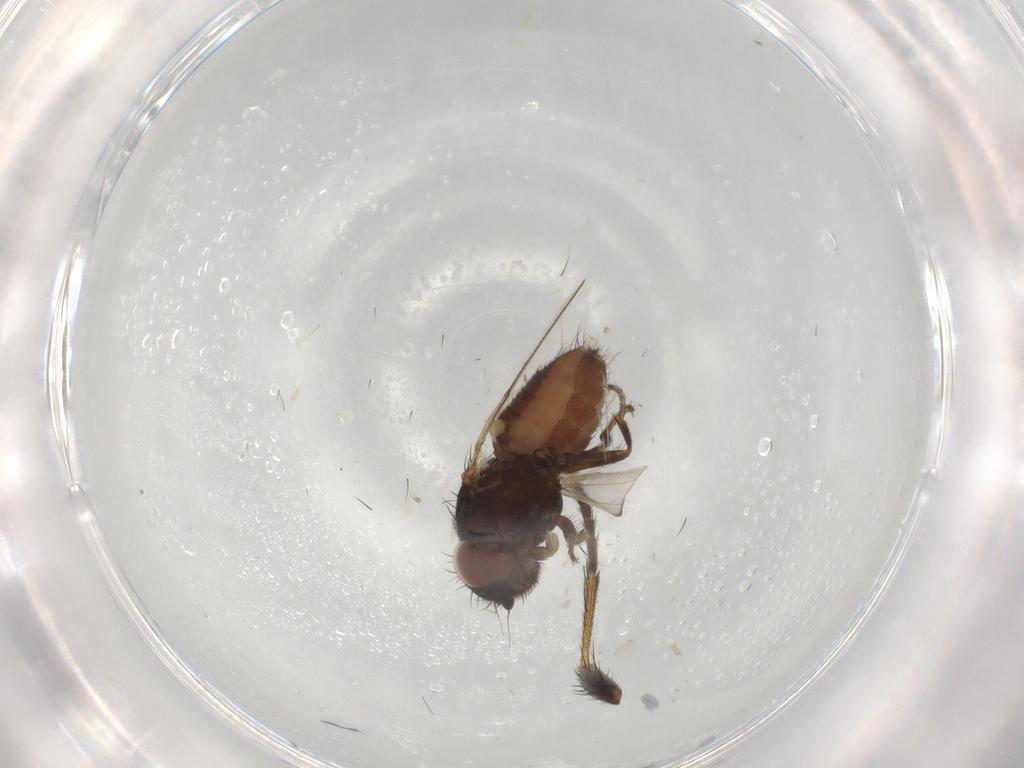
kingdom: Animalia
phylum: Arthropoda
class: Insecta
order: Diptera
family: Milichiidae
